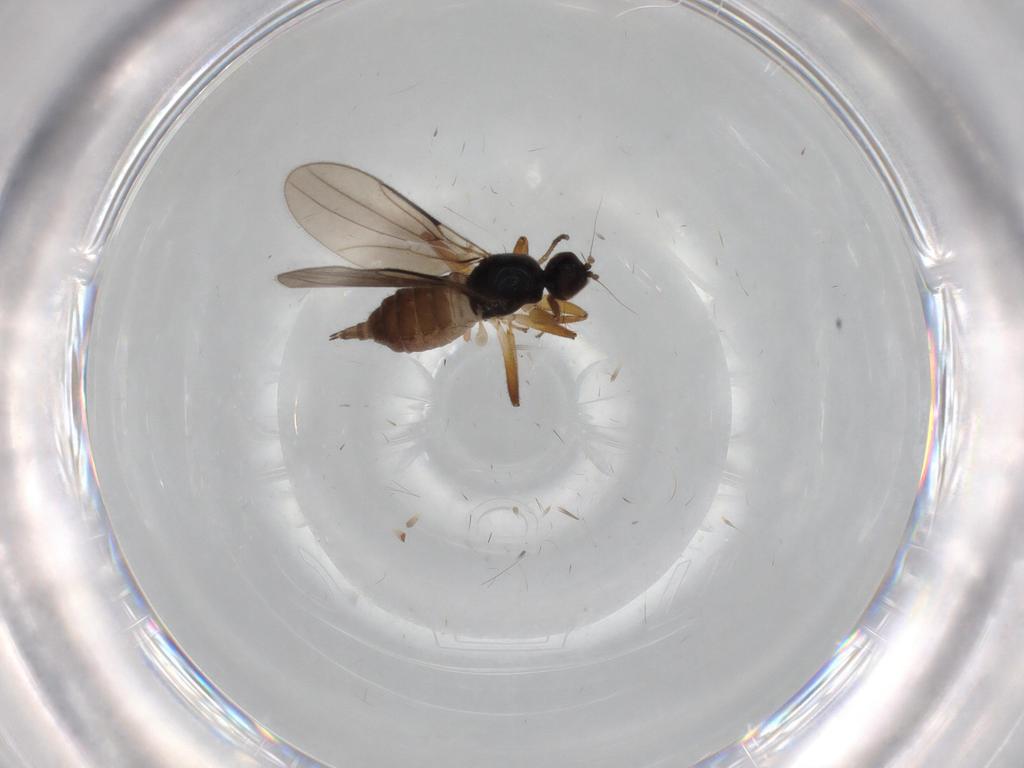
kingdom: Animalia
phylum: Arthropoda
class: Insecta
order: Diptera
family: Hybotidae
